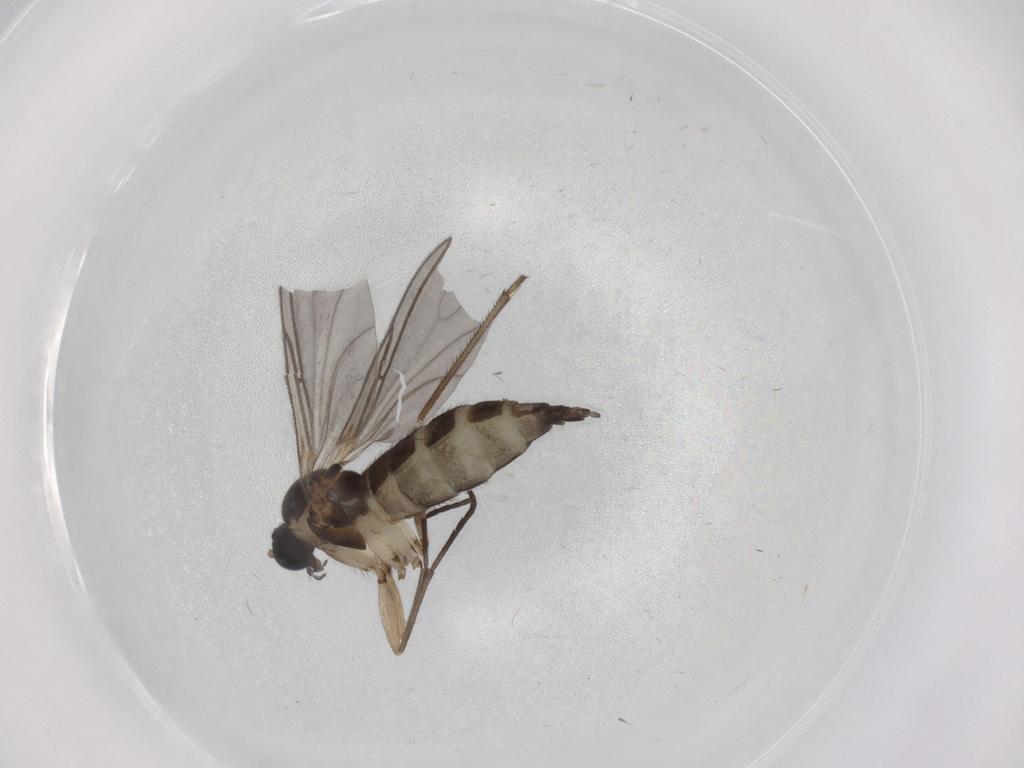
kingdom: Animalia
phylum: Arthropoda
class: Insecta
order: Diptera
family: Sciaridae
